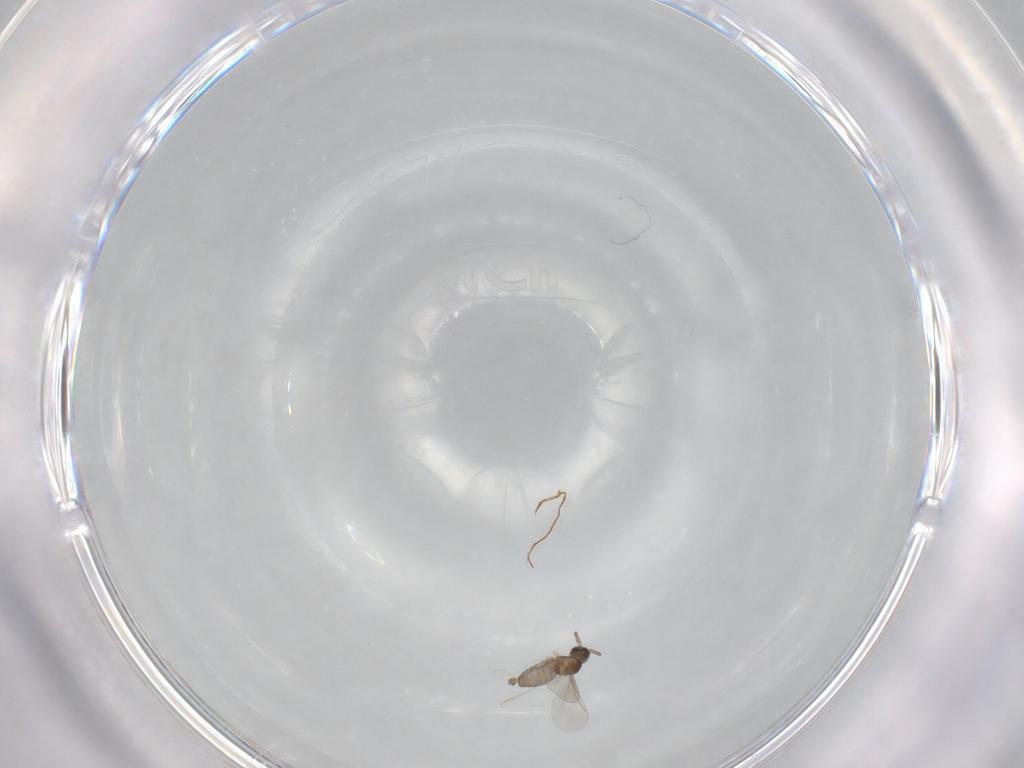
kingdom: Animalia
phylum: Arthropoda
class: Insecta
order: Diptera
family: Cecidomyiidae
